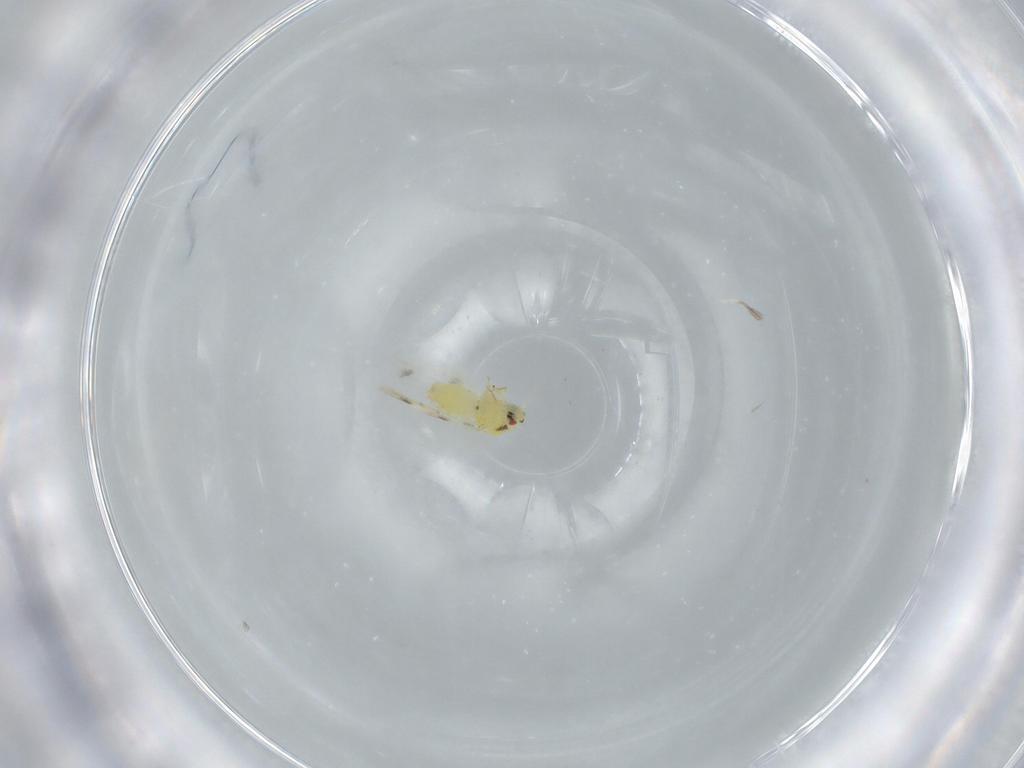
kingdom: Animalia
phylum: Arthropoda
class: Insecta
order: Hemiptera
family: Aleyrodidae
